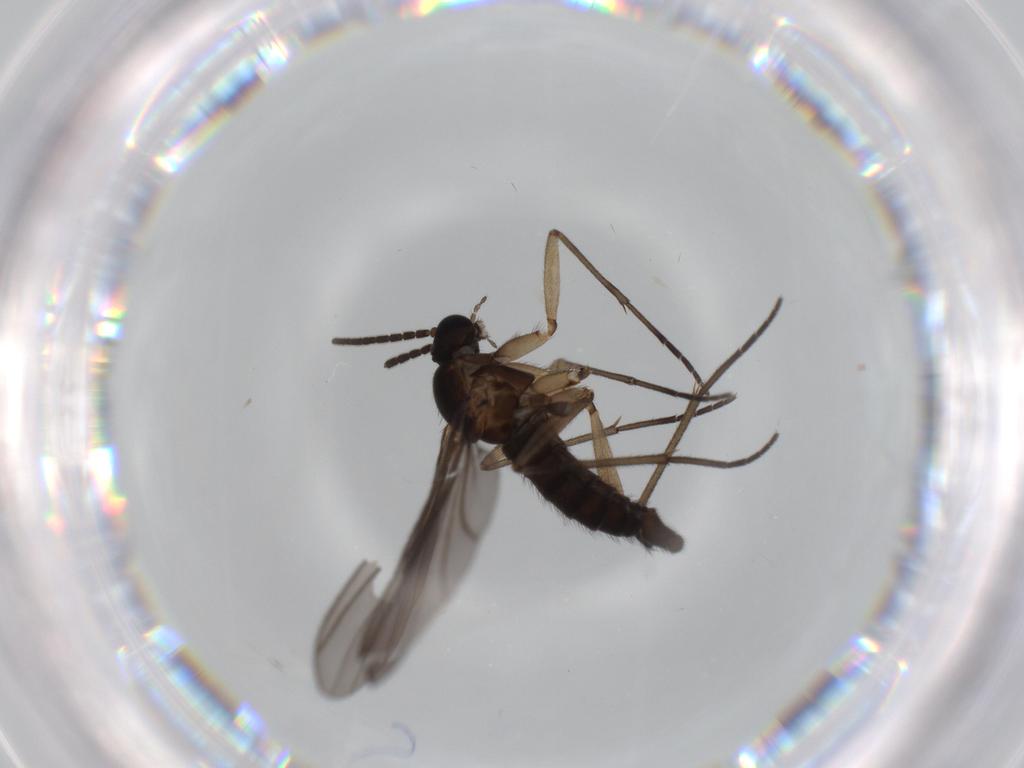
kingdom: Animalia
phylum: Arthropoda
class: Insecta
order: Diptera
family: Sciaridae
